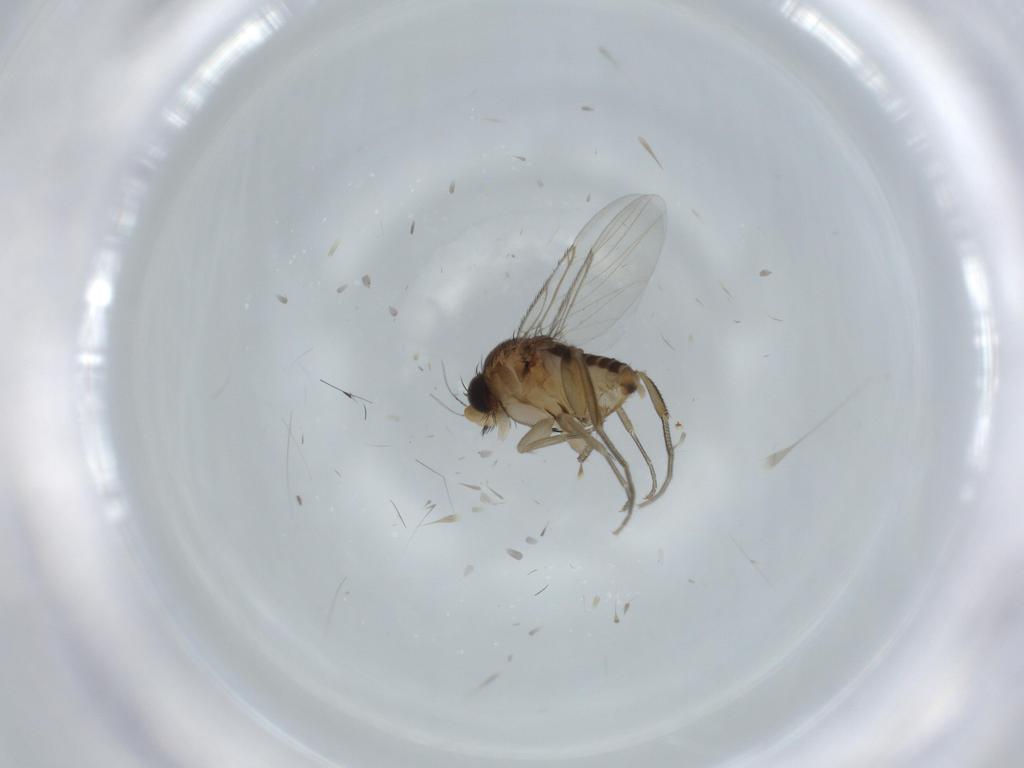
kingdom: Animalia
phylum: Arthropoda
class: Insecta
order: Diptera
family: Phoridae
